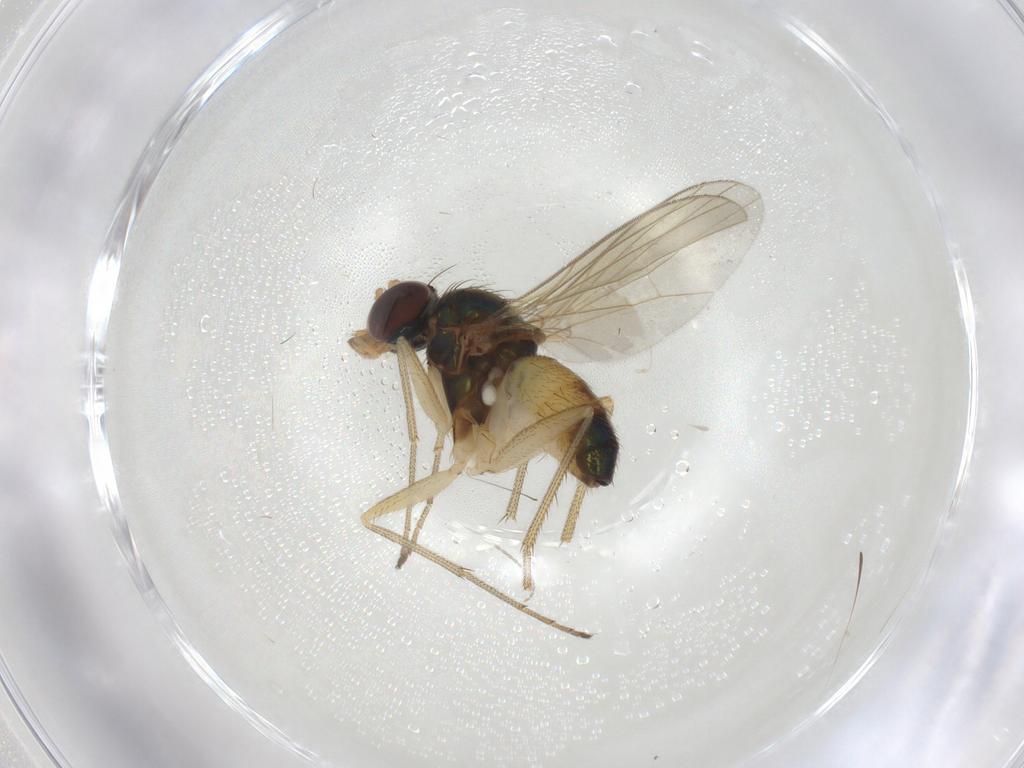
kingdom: Animalia
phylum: Arthropoda
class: Insecta
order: Diptera
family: Dolichopodidae
